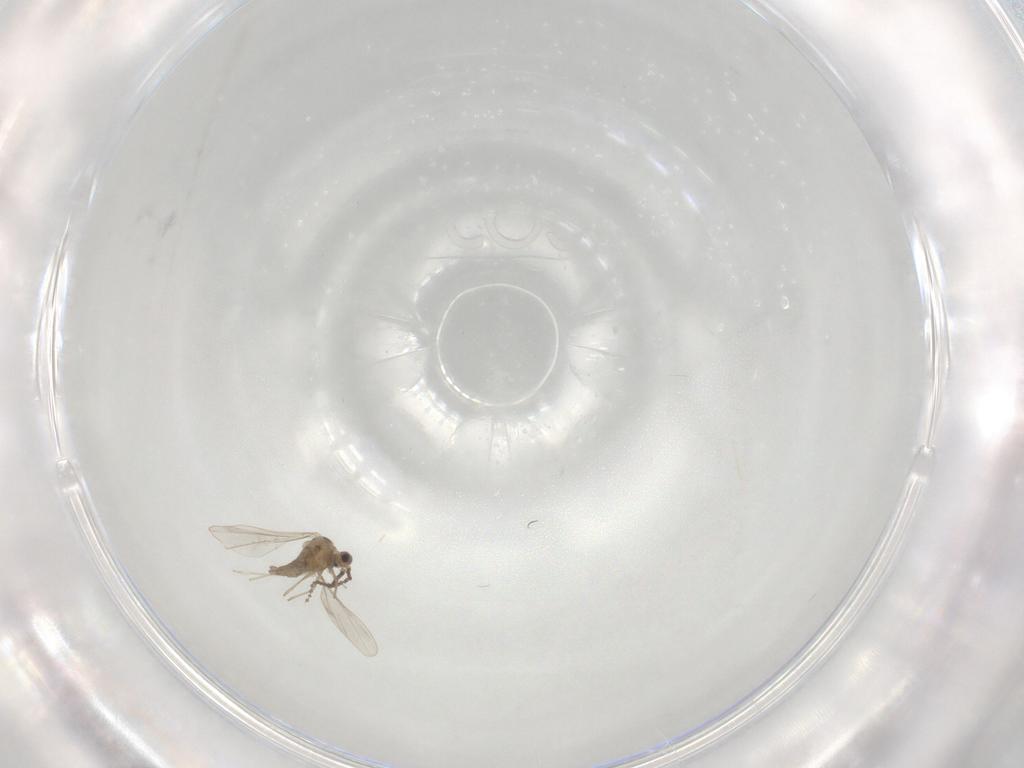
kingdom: Animalia
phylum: Arthropoda
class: Insecta
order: Diptera
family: Cecidomyiidae
